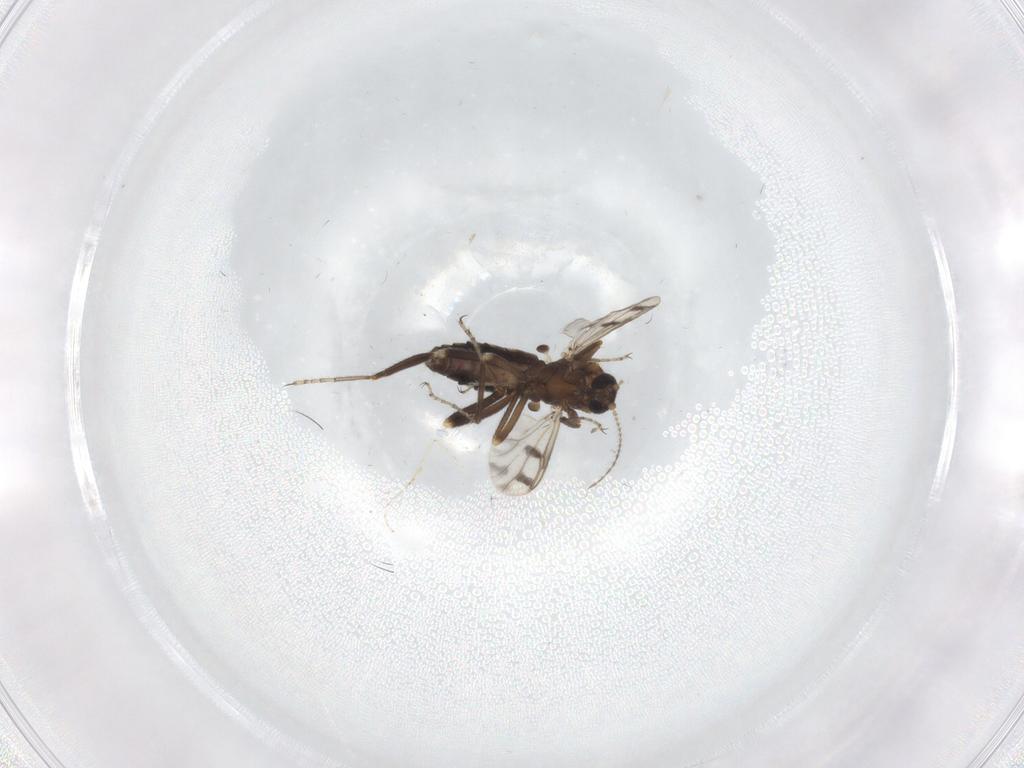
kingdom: Animalia
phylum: Arthropoda
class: Insecta
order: Diptera
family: Ceratopogonidae
